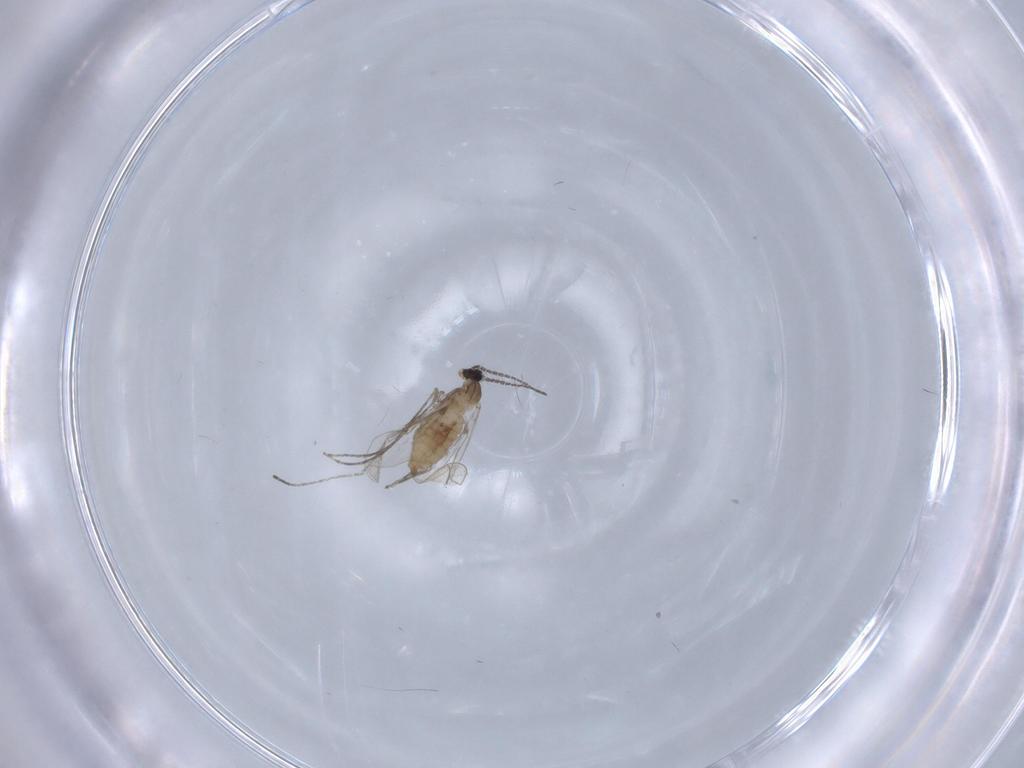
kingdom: Animalia
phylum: Arthropoda
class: Insecta
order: Diptera
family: Cecidomyiidae
